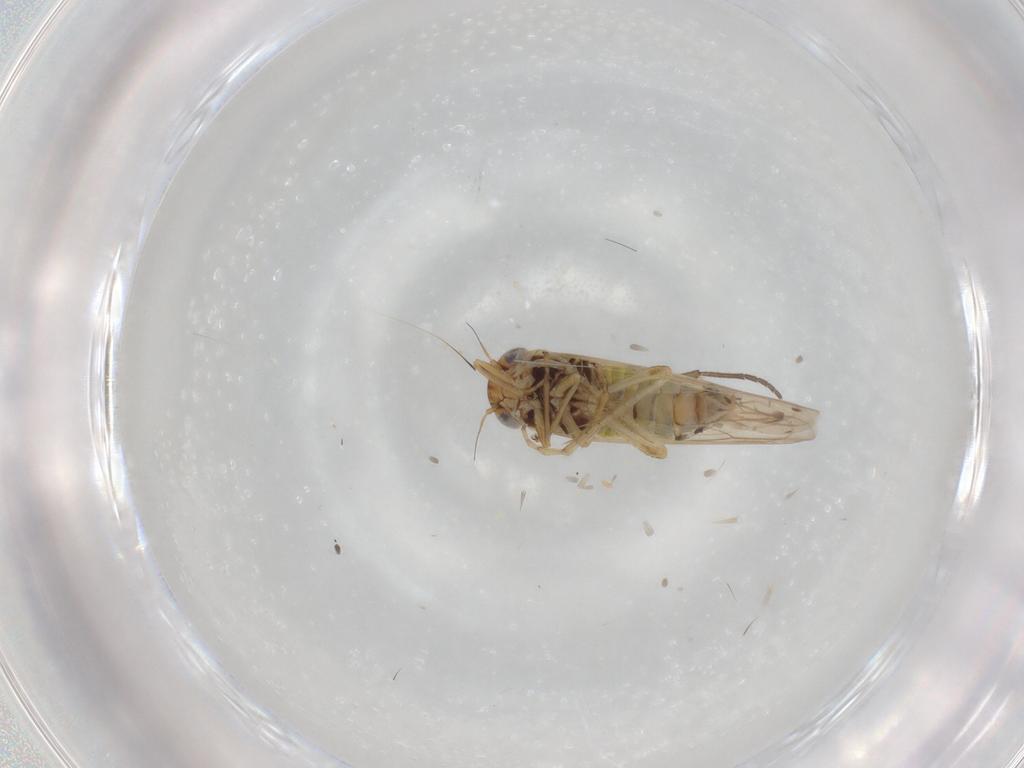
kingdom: Animalia
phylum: Arthropoda
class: Insecta
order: Hemiptera
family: Cicadellidae
